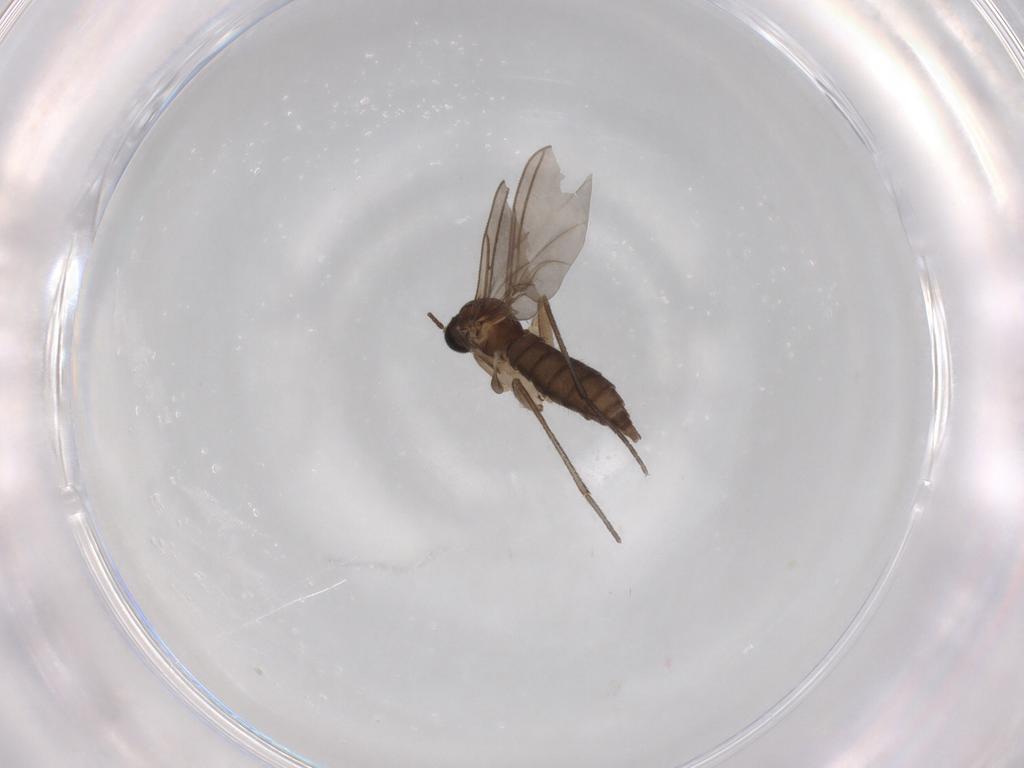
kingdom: Animalia
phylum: Arthropoda
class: Insecta
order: Diptera
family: Sciaridae
